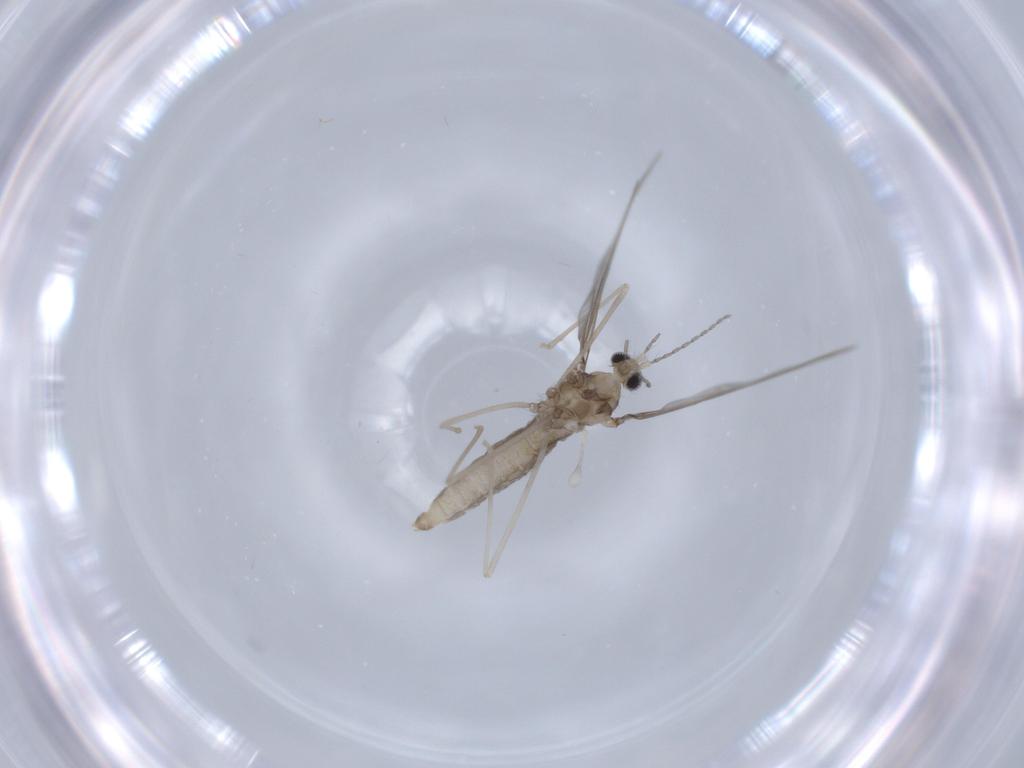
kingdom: Animalia
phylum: Arthropoda
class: Insecta
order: Diptera
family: Cecidomyiidae
